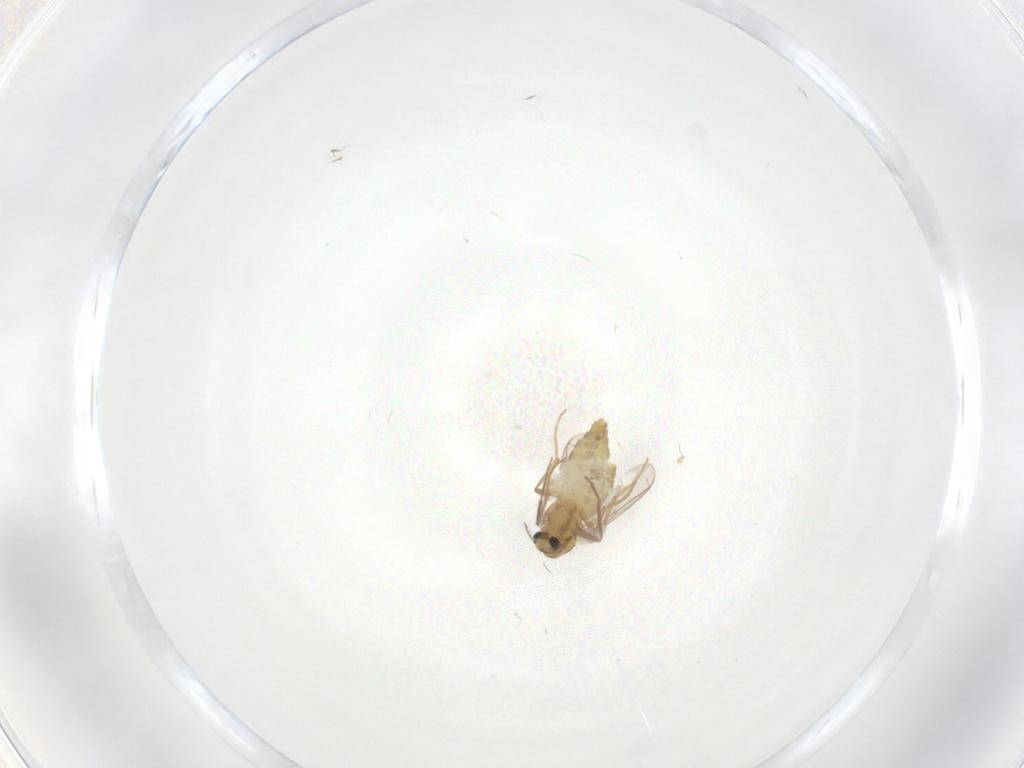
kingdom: Animalia
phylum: Arthropoda
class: Insecta
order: Diptera
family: Chironomidae
